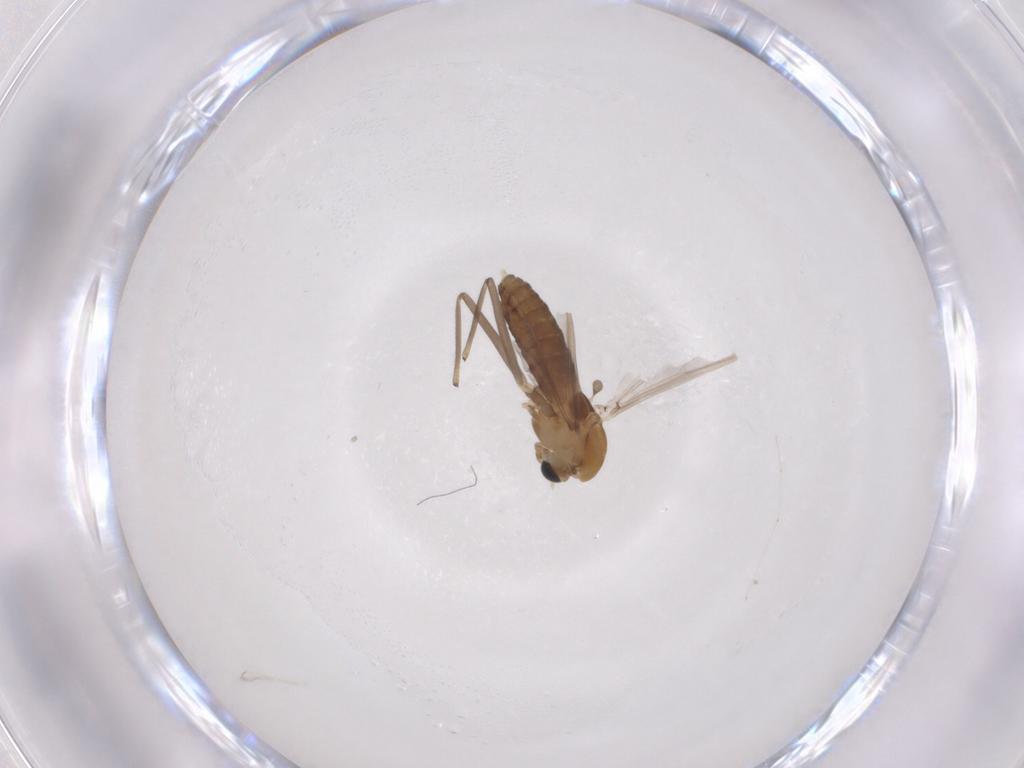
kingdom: Animalia
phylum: Arthropoda
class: Insecta
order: Diptera
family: Chironomidae
